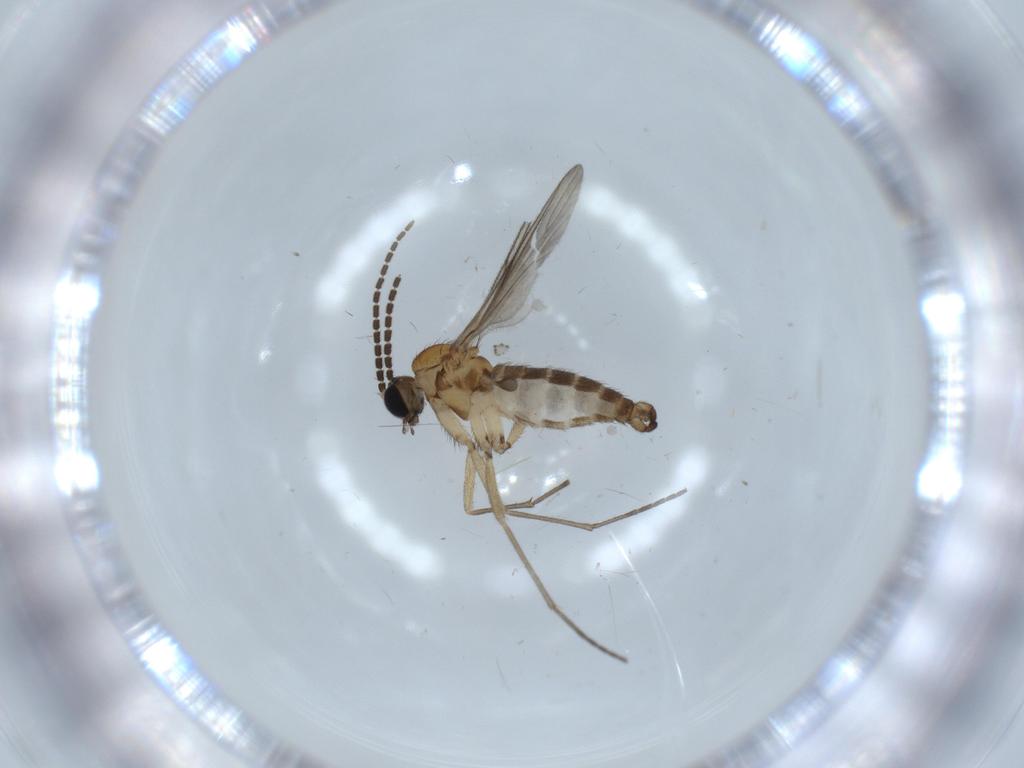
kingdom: Animalia
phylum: Arthropoda
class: Insecta
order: Diptera
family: Sciaridae
